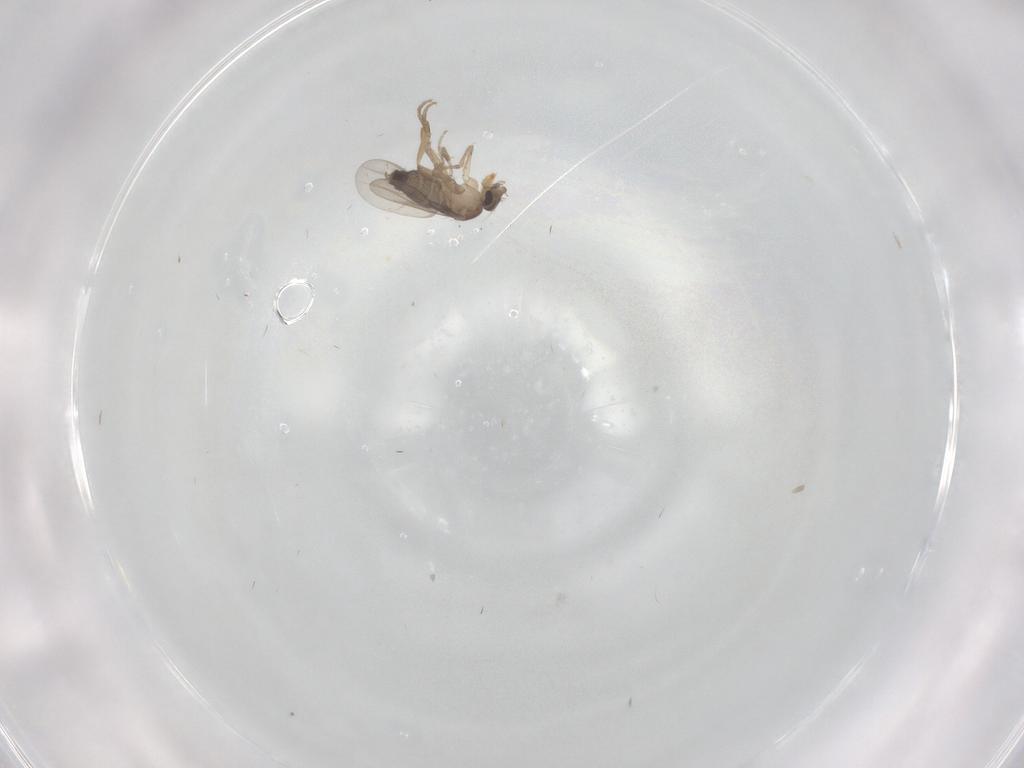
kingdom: Animalia
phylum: Arthropoda
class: Insecta
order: Diptera
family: Phoridae
